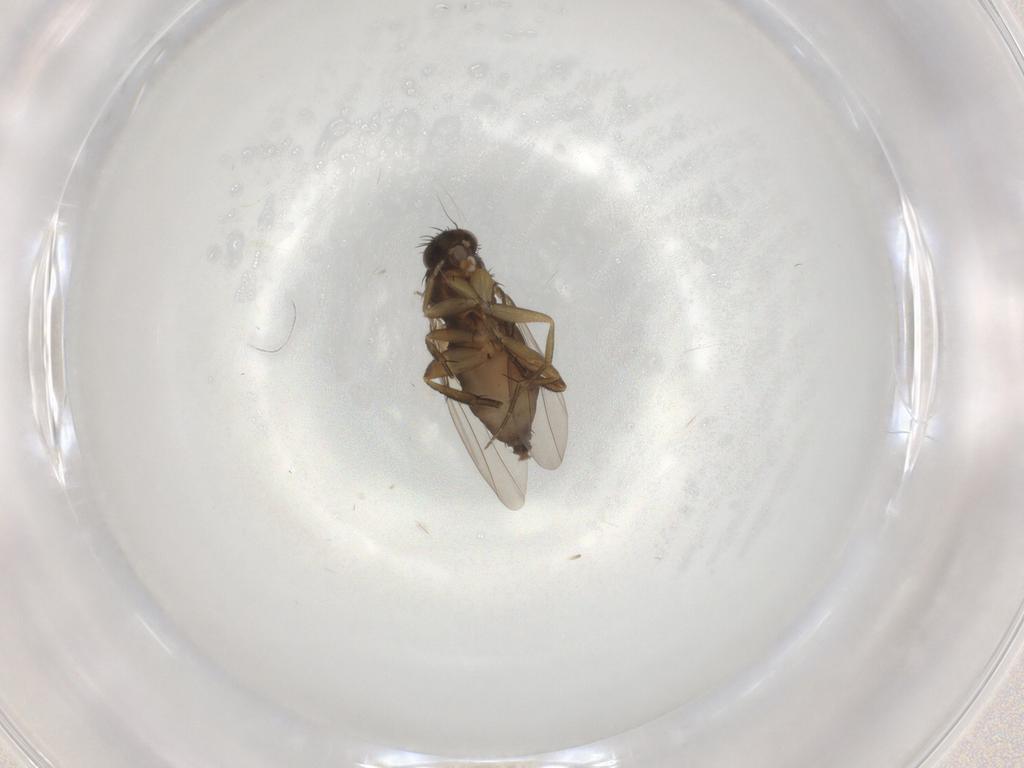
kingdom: Animalia
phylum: Arthropoda
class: Insecta
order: Diptera
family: Phoridae
